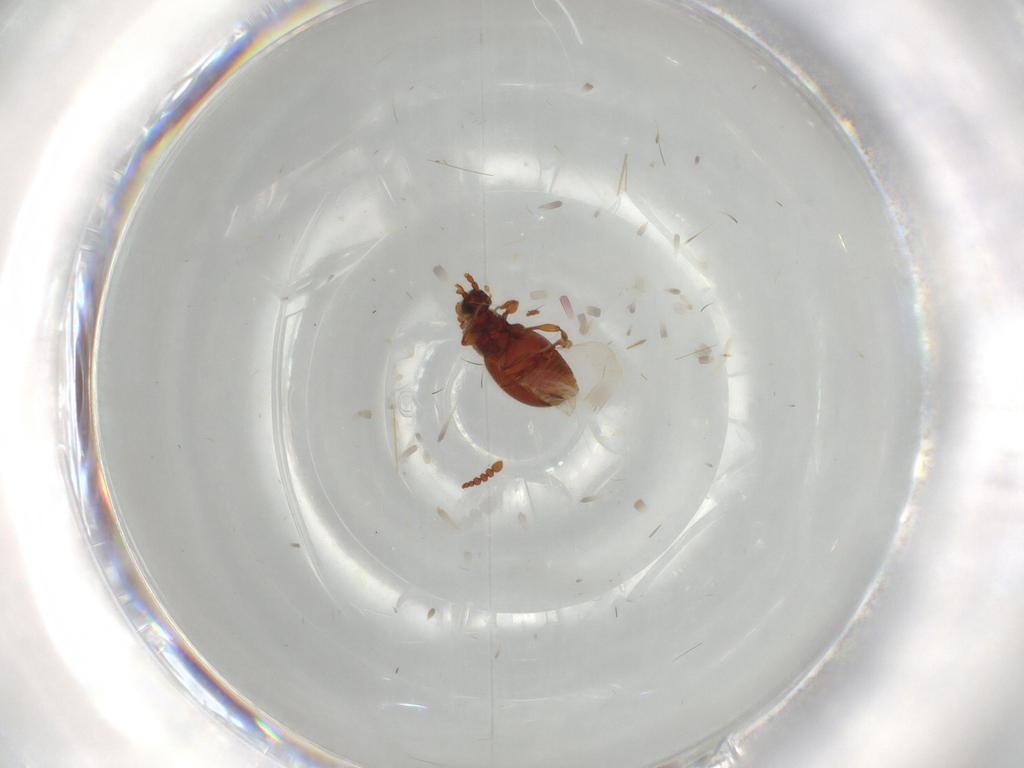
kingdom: Animalia
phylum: Arthropoda
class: Insecta
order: Coleoptera
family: Staphylinidae
